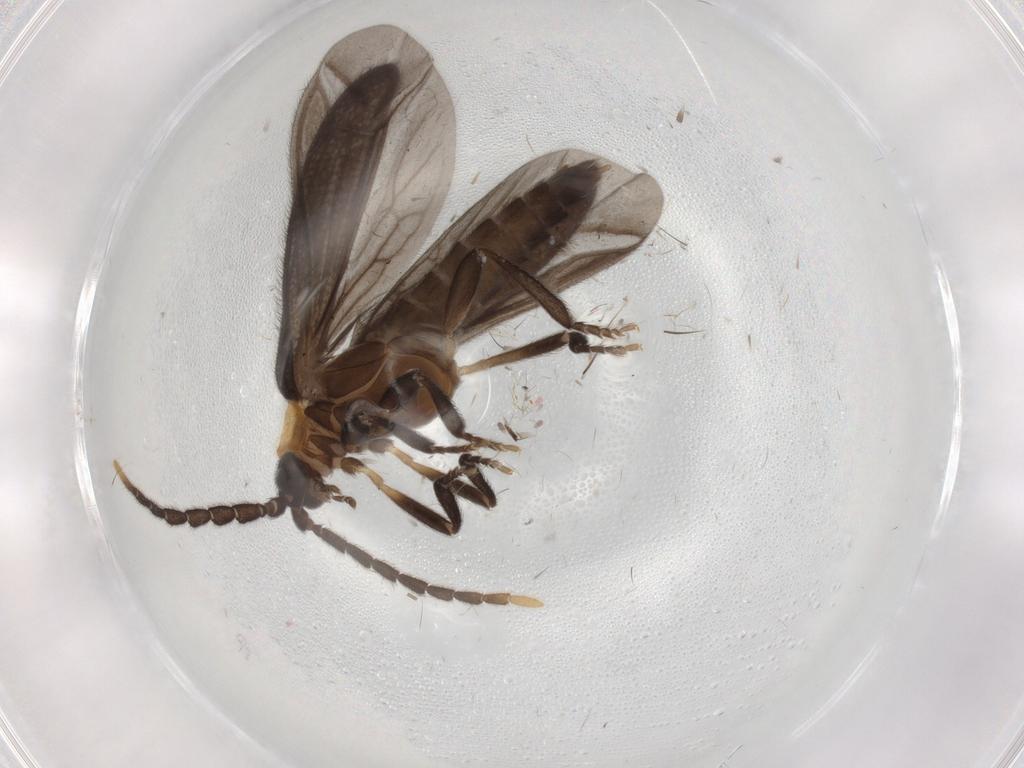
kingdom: Animalia
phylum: Arthropoda
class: Insecta
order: Coleoptera
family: Lycidae
